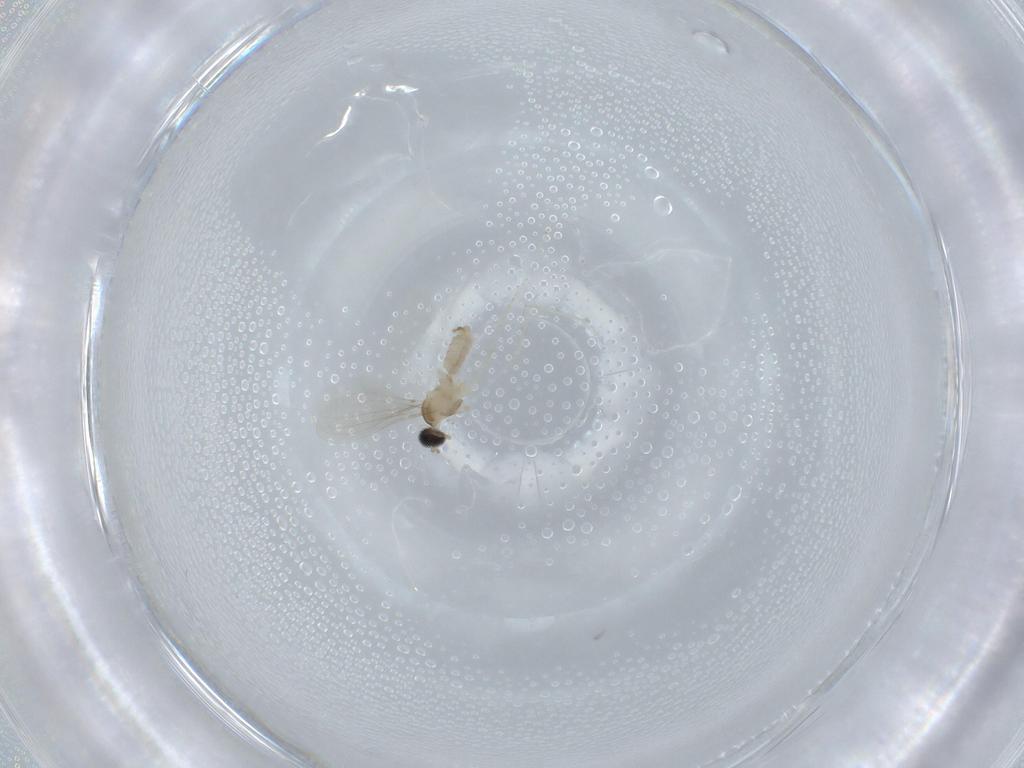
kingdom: Animalia
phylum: Arthropoda
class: Insecta
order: Diptera
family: Cecidomyiidae
